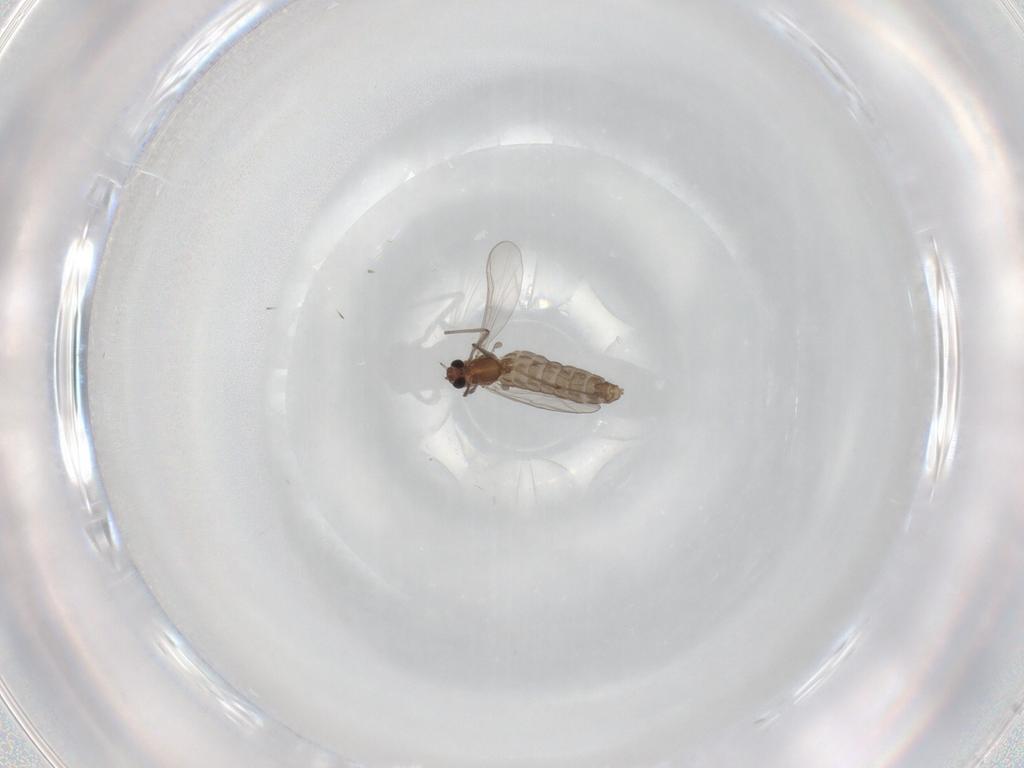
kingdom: Animalia
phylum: Arthropoda
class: Insecta
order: Diptera
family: Chironomidae
